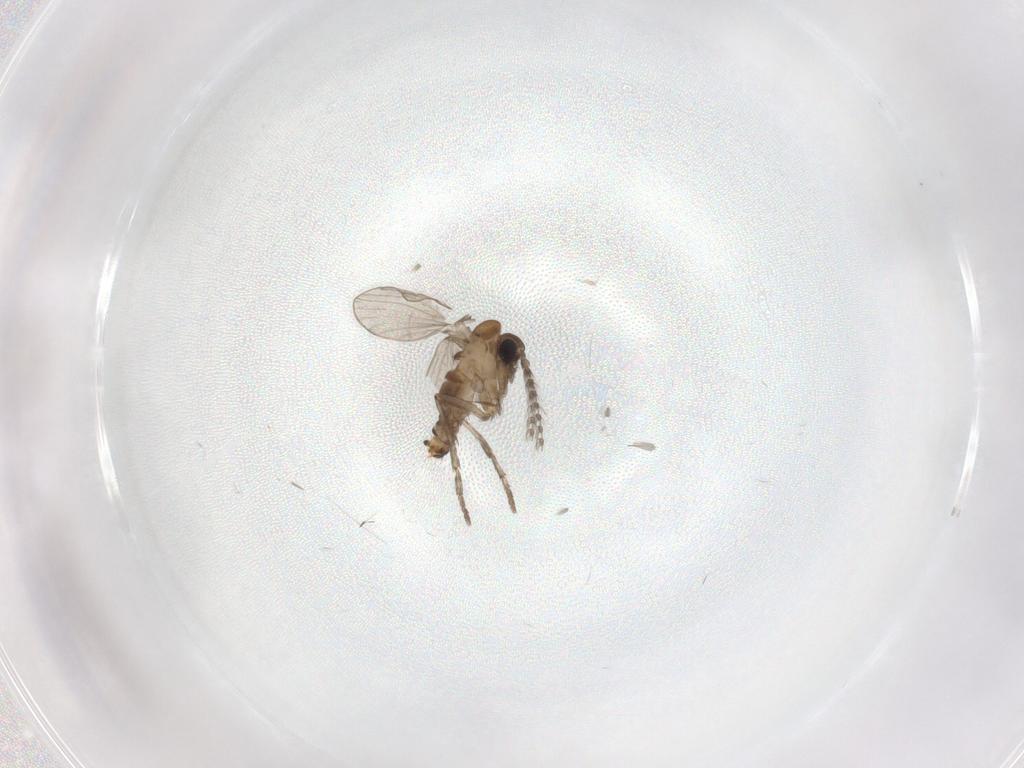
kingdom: Animalia
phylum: Arthropoda
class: Insecta
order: Diptera
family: Psychodidae
